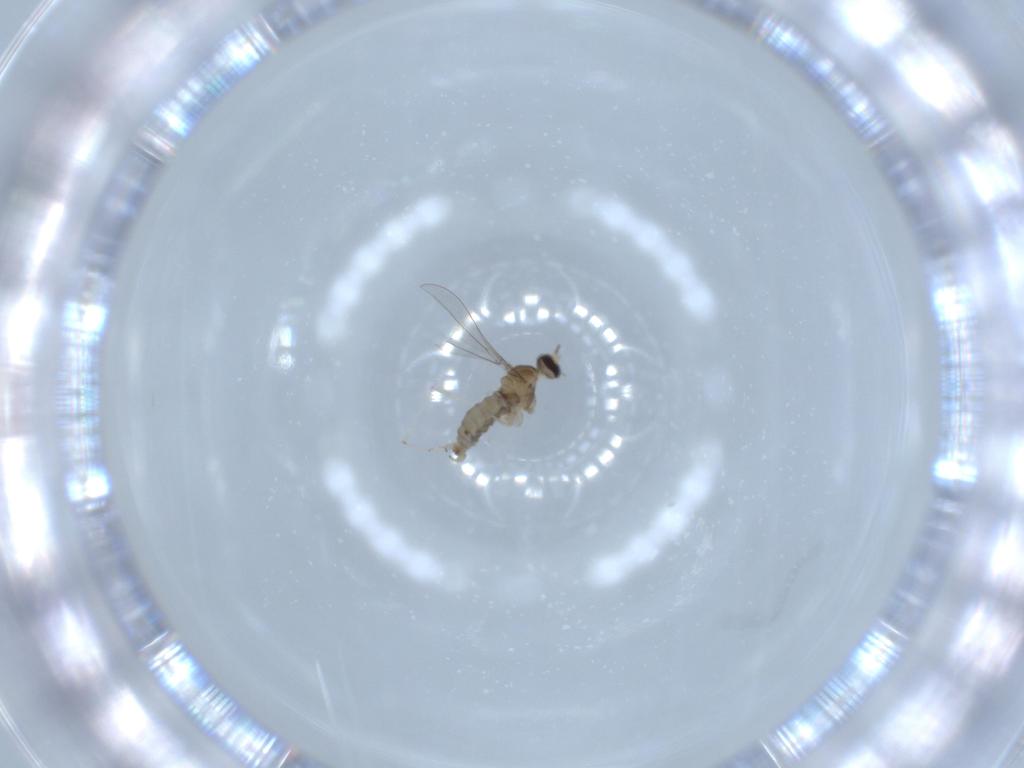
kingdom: Animalia
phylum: Arthropoda
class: Insecta
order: Diptera
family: Cecidomyiidae
